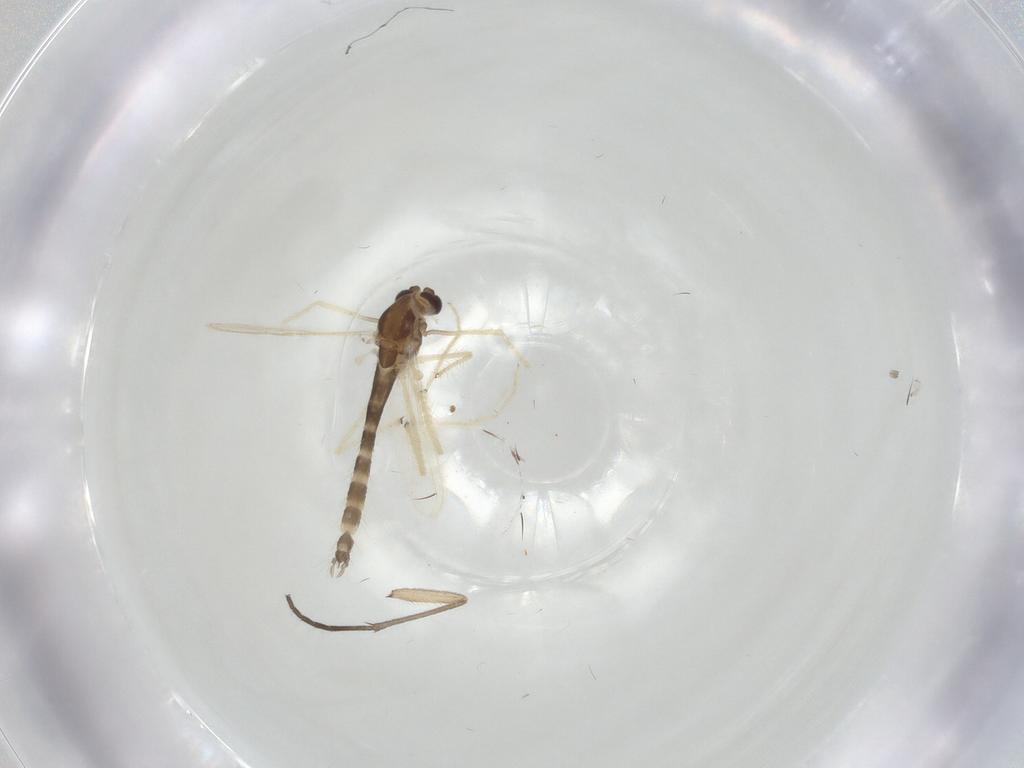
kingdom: Animalia
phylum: Arthropoda
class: Insecta
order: Diptera
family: Chironomidae
